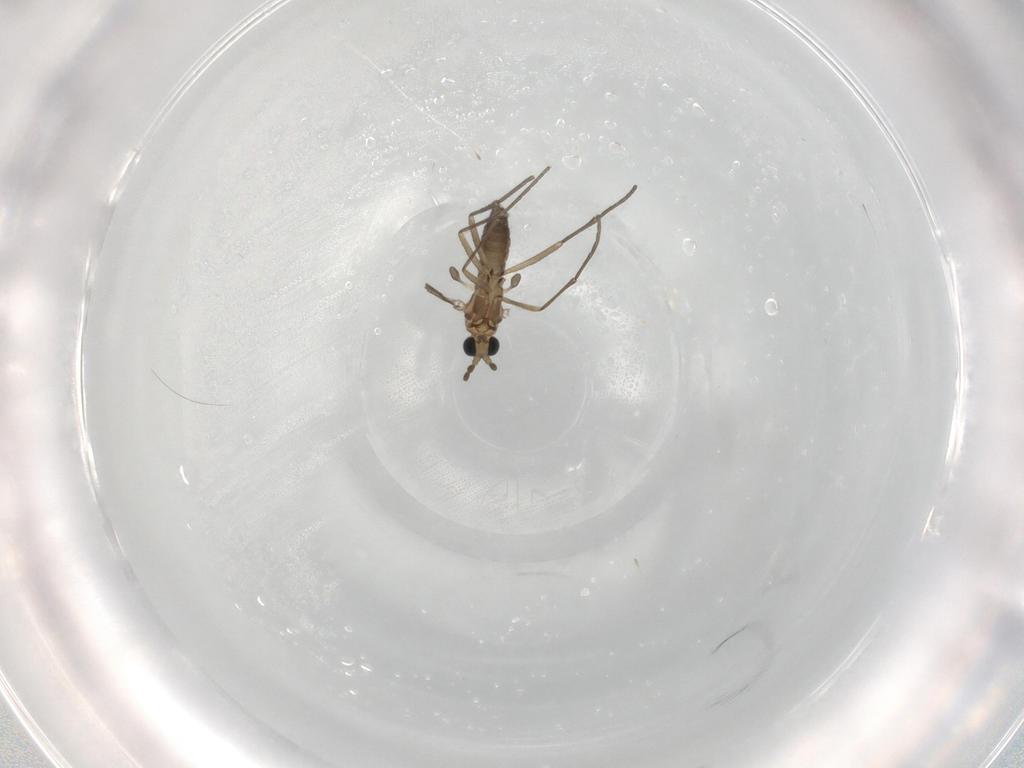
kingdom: Animalia
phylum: Arthropoda
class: Insecta
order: Diptera
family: Sciaridae
